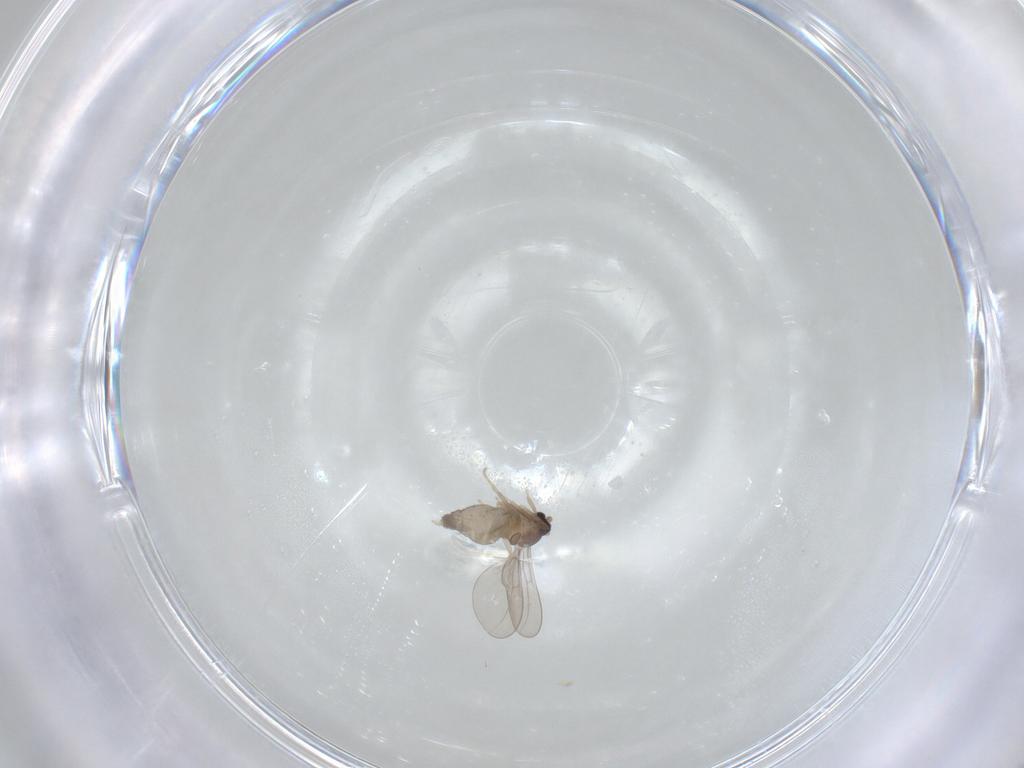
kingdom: Animalia
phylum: Arthropoda
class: Insecta
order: Diptera
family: Cecidomyiidae
